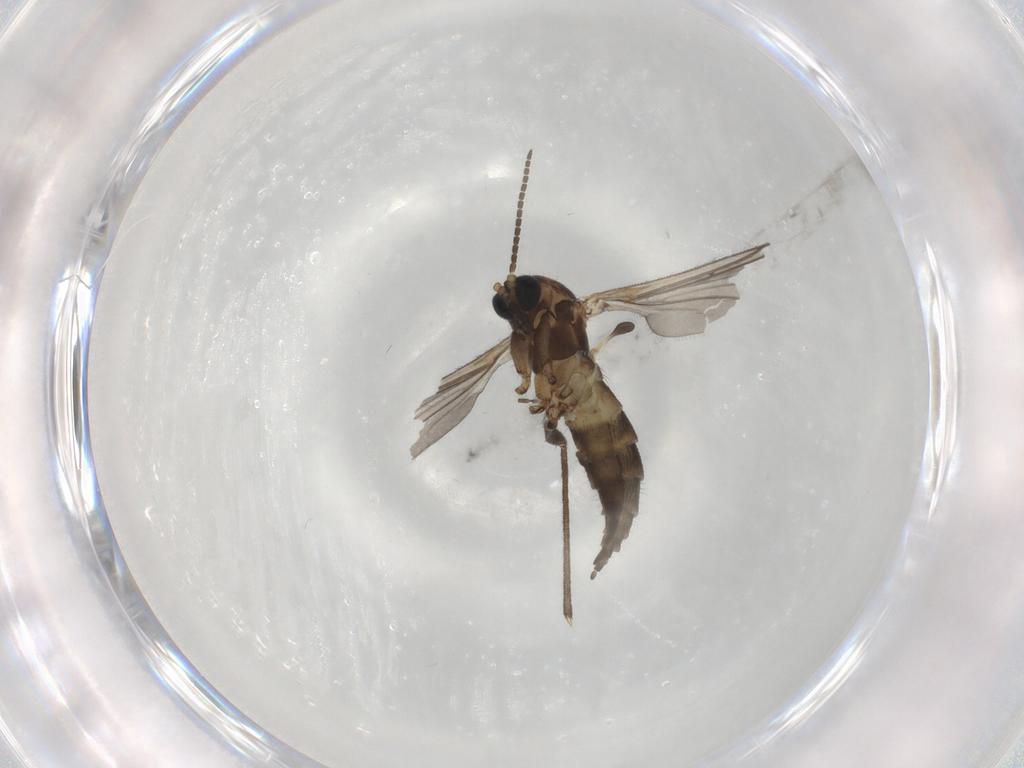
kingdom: Animalia
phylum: Arthropoda
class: Insecta
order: Diptera
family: Sciaridae
